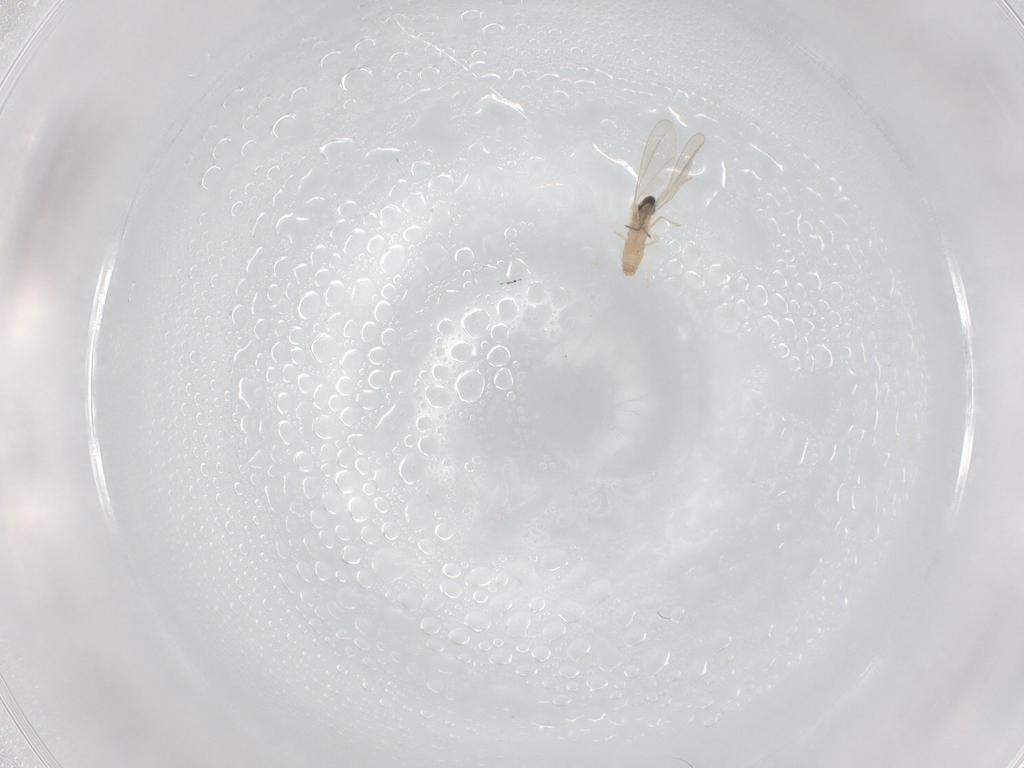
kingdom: Animalia
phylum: Arthropoda
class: Insecta
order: Diptera
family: Cecidomyiidae
